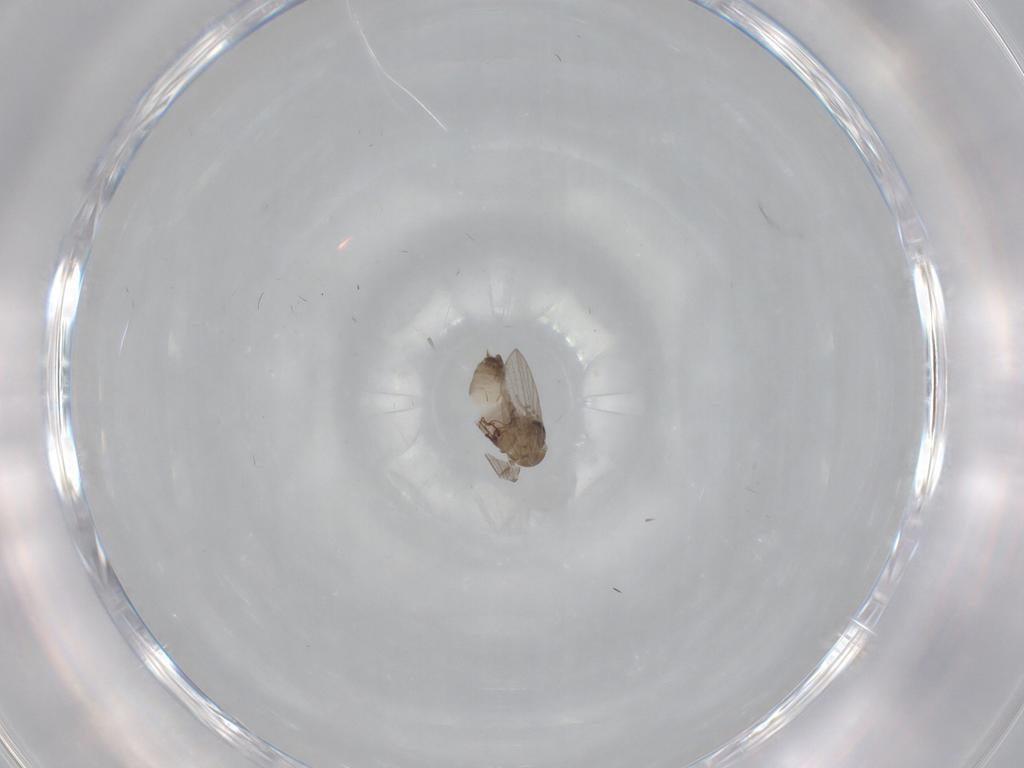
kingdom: Animalia
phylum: Arthropoda
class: Insecta
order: Diptera
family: Psychodidae
